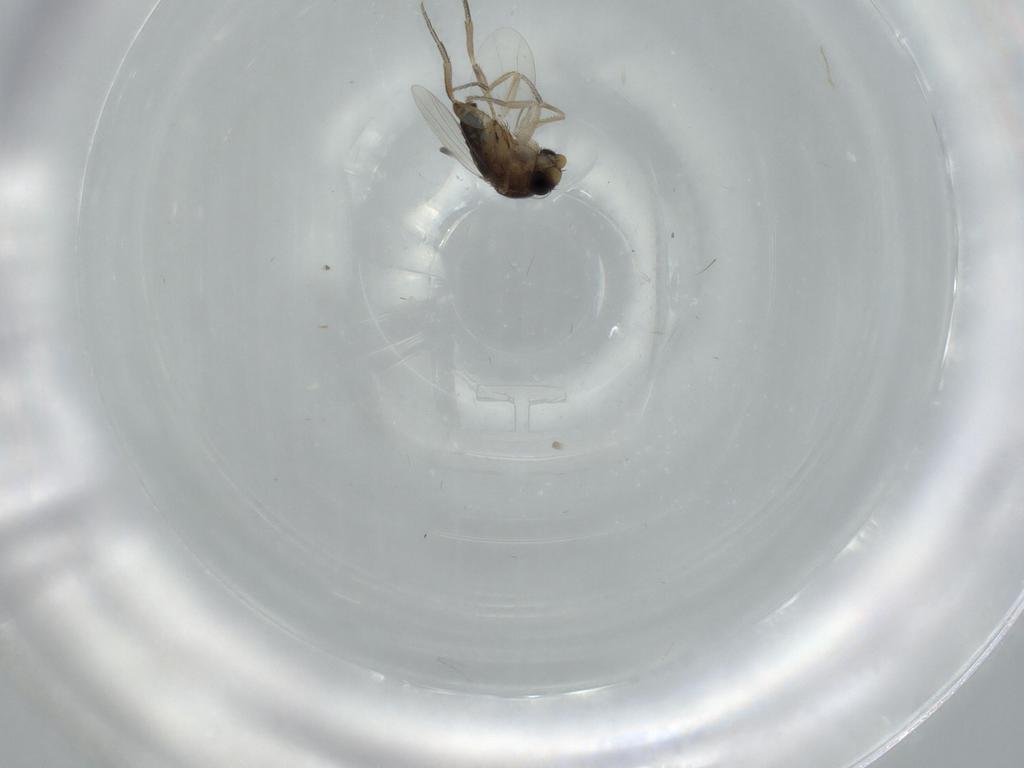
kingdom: Animalia
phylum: Arthropoda
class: Insecta
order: Diptera
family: Phoridae
